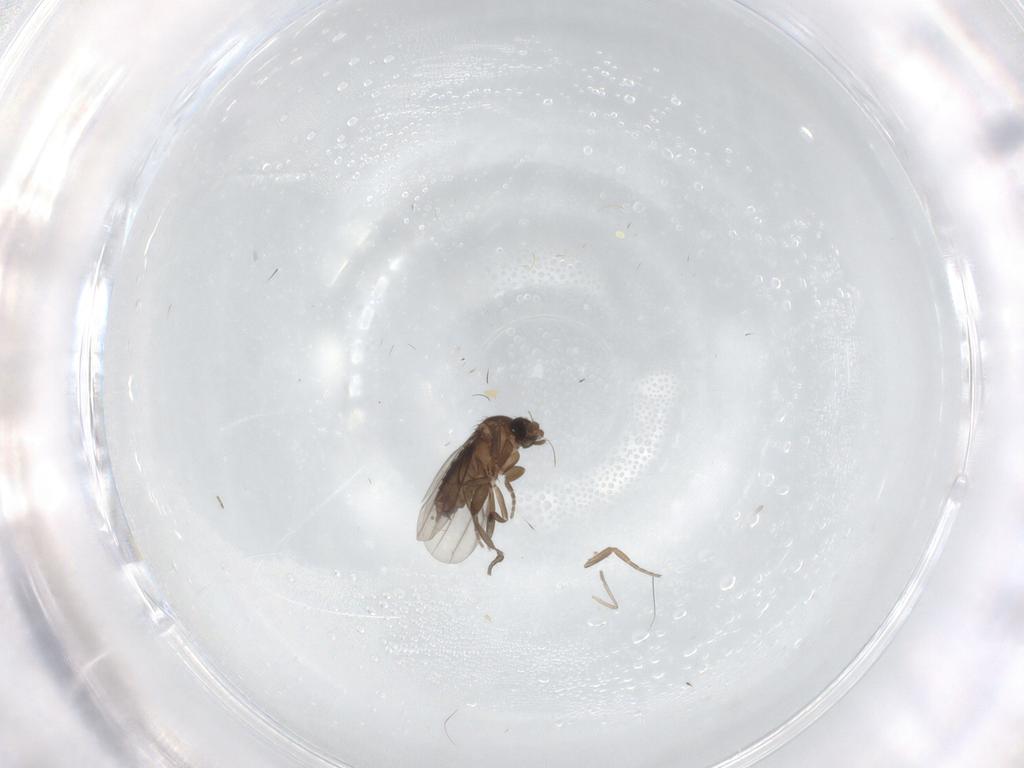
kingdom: Animalia
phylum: Arthropoda
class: Insecta
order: Diptera
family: Phoridae
